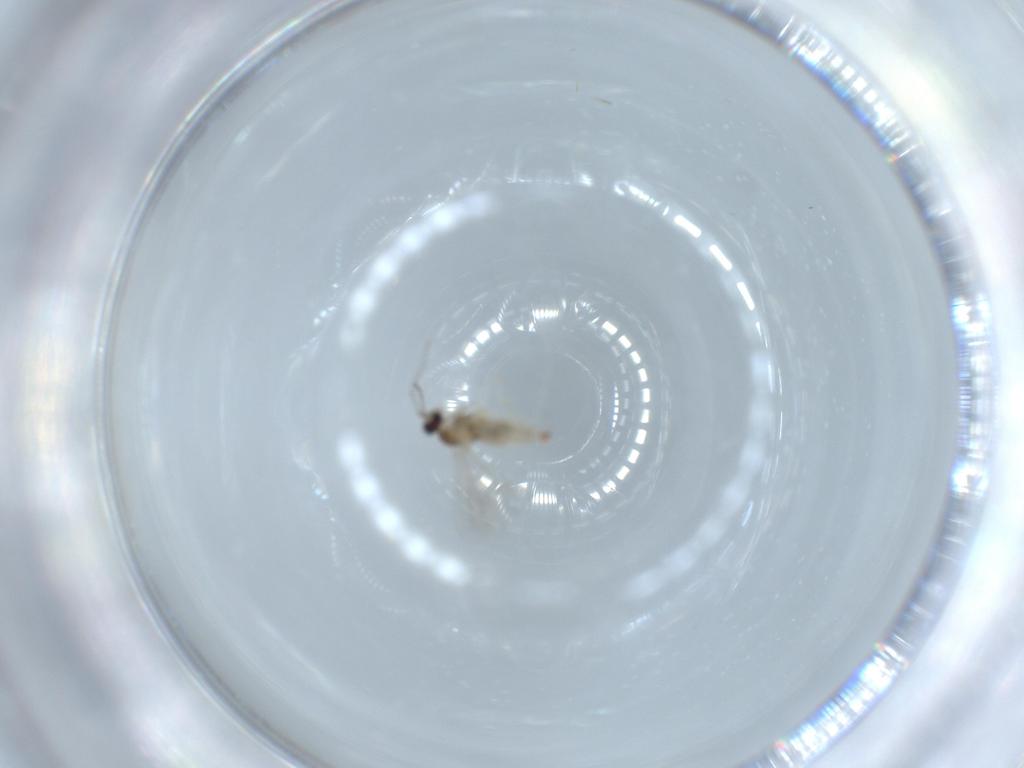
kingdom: Animalia
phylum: Arthropoda
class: Insecta
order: Diptera
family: Cecidomyiidae
